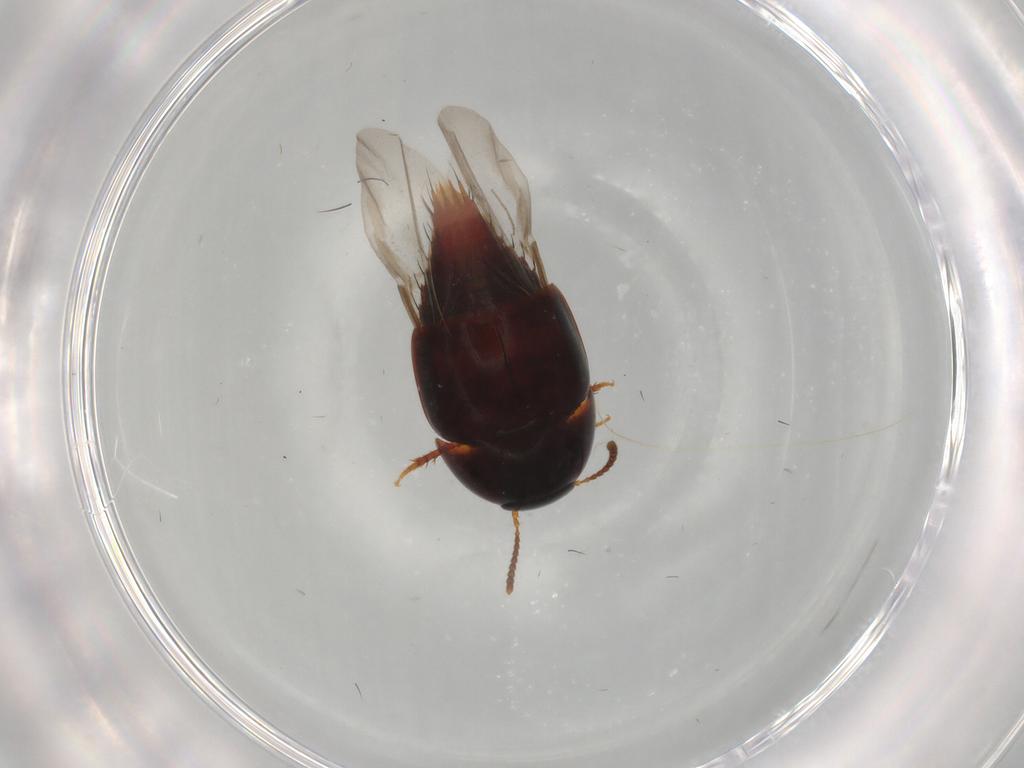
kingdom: Animalia
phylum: Arthropoda
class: Insecta
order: Coleoptera
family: Staphylinidae
